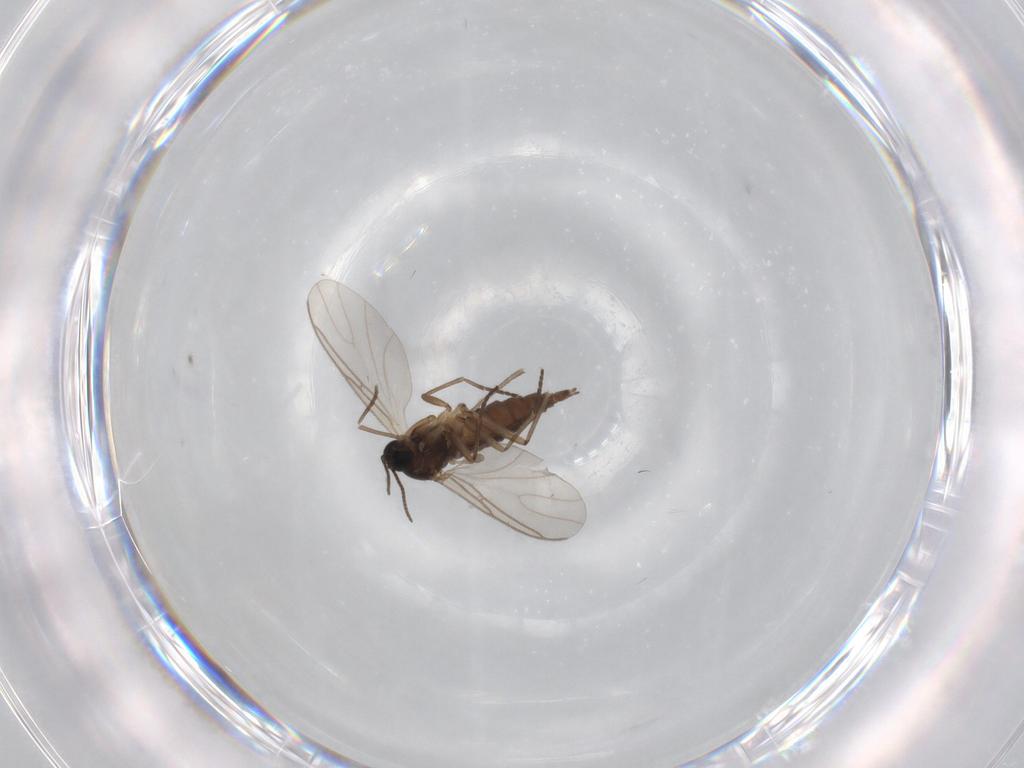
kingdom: Animalia
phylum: Arthropoda
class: Insecta
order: Diptera
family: Sciaridae
